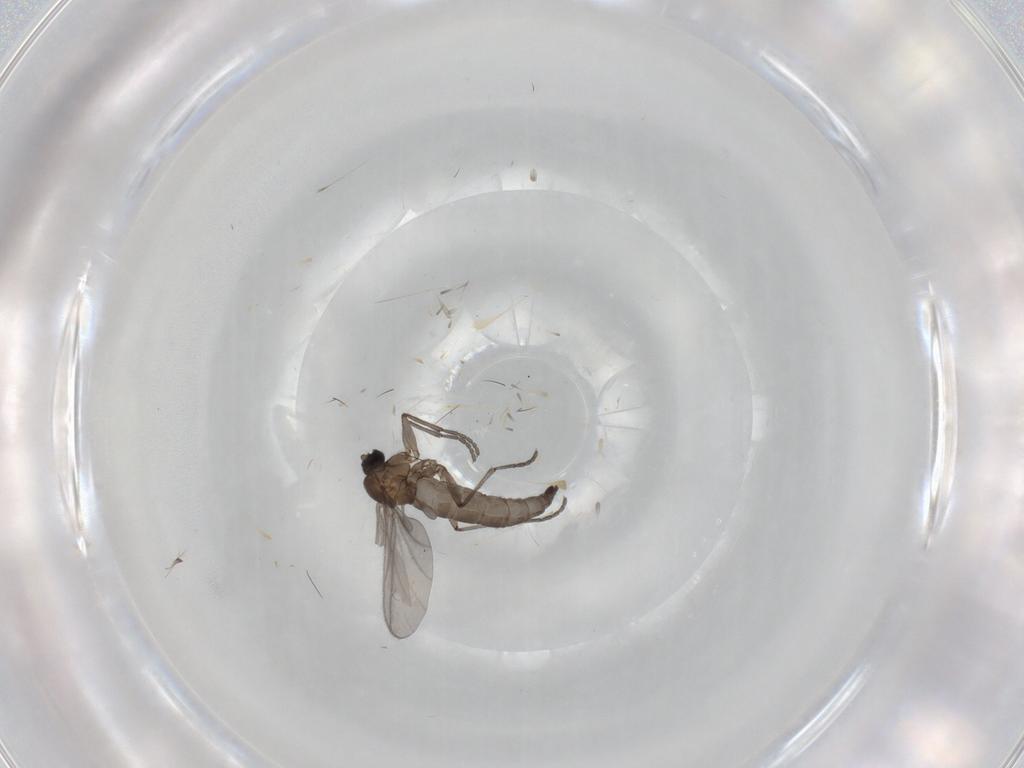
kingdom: Animalia
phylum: Arthropoda
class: Insecta
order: Diptera
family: Sciaridae
